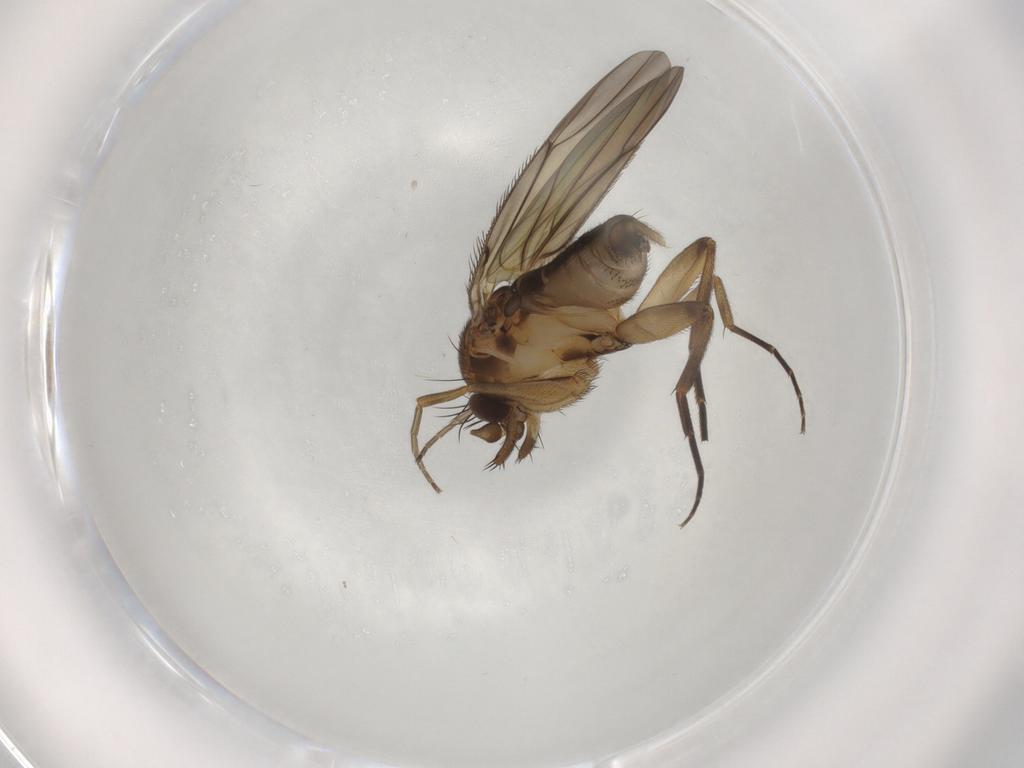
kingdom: Animalia
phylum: Arthropoda
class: Insecta
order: Diptera
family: Phoridae
